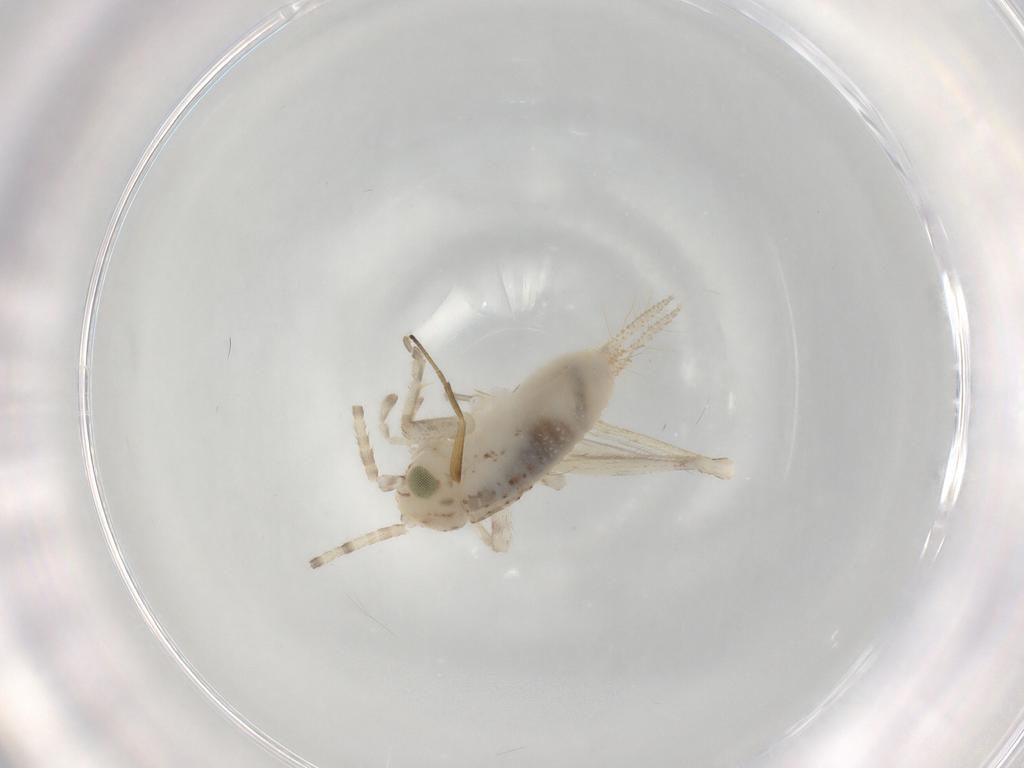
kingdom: Animalia
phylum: Arthropoda
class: Insecta
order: Orthoptera
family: Trigonidiidae
